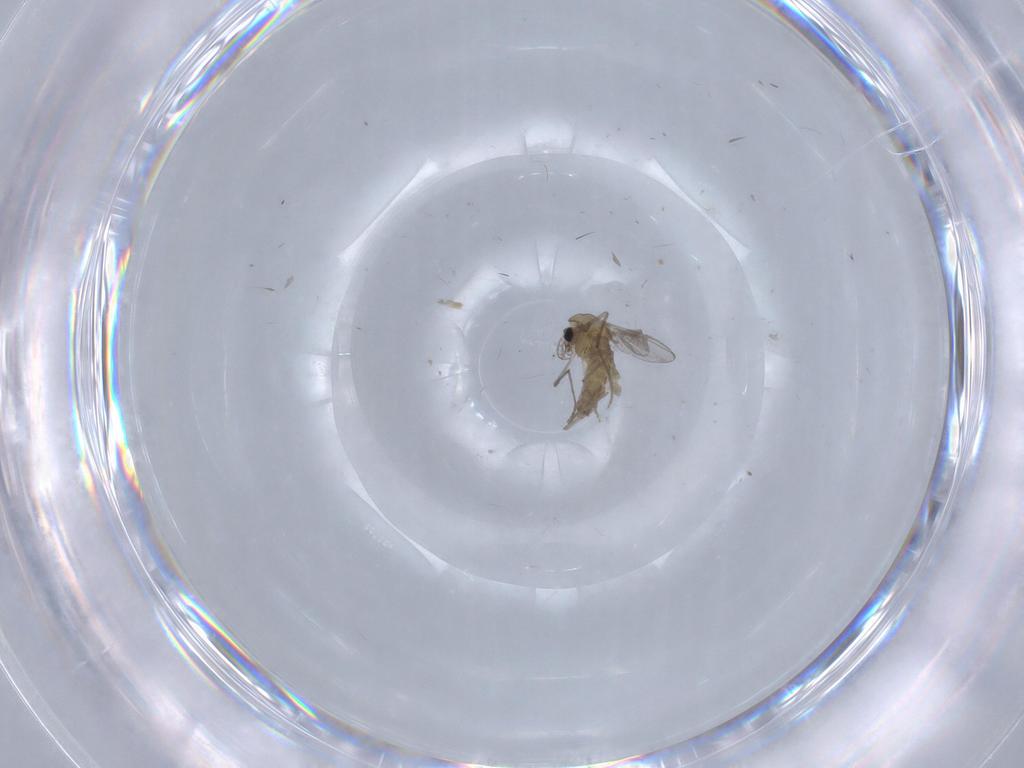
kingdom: Animalia
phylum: Arthropoda
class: Insecta
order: Diptera
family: Chironomidae
